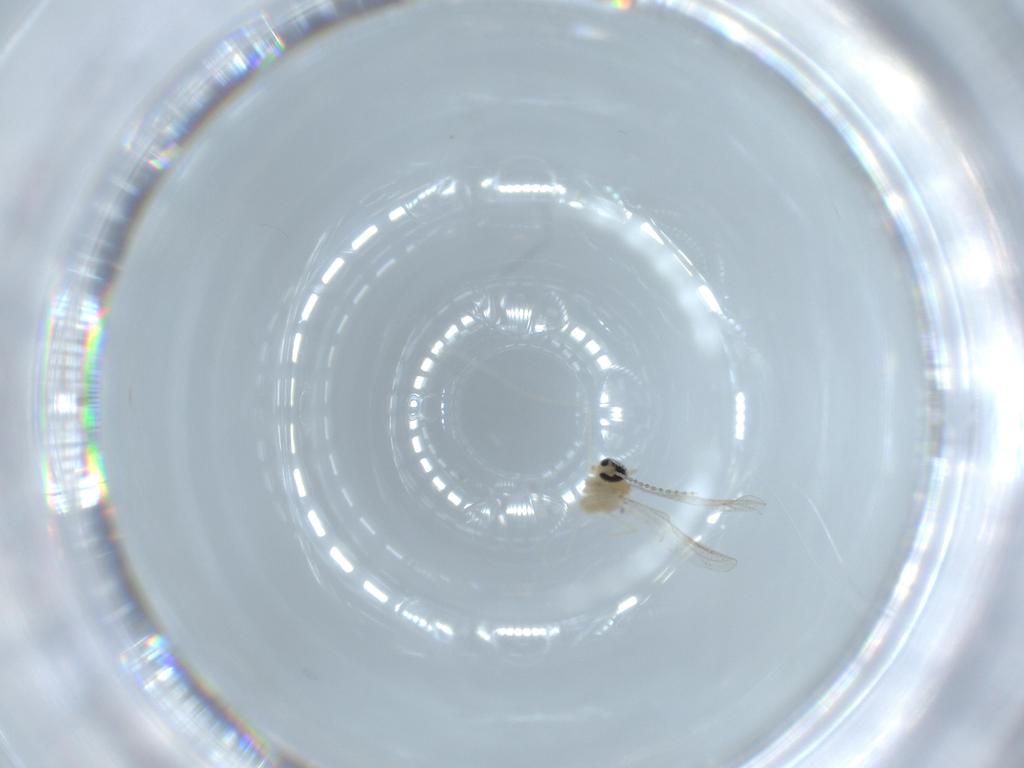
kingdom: Animalia
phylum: Arthropoda
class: Insecta
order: Diptera
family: Cecidomyiidae
